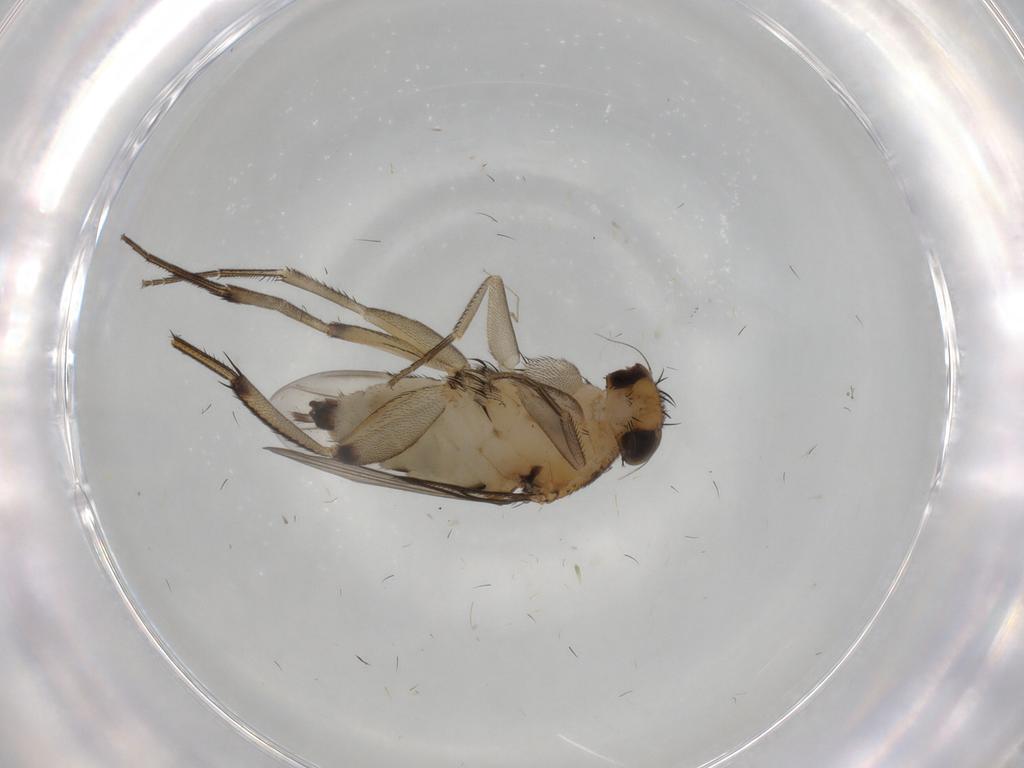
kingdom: Animalia
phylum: Arthropoda
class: Insecta
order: Diptera
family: Phoridae
